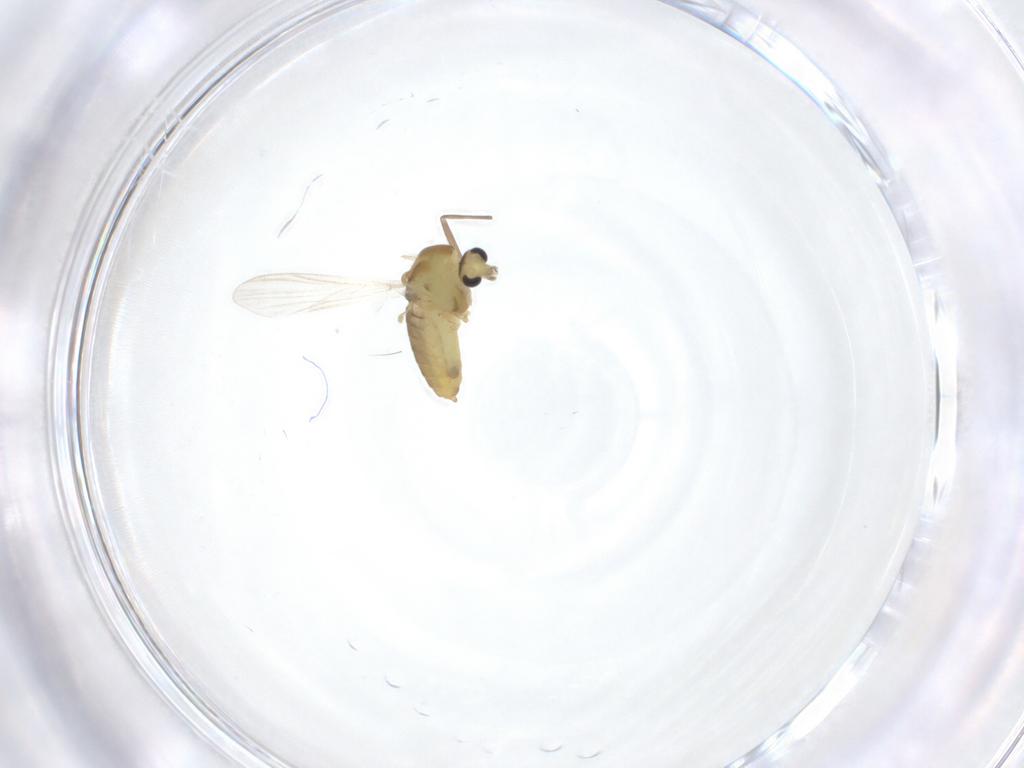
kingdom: Animalia
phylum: Arthropoda
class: Insecta
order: Diptera
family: Chironomidae
